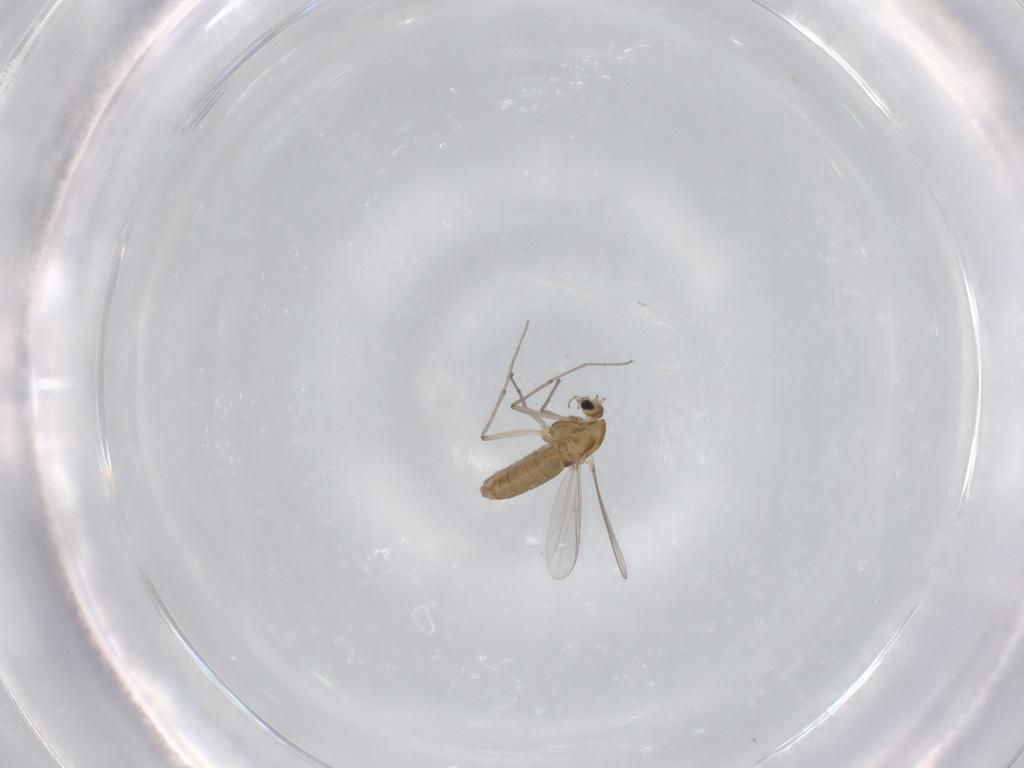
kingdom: Animalia
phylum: Arthropoda
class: Insecta
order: Diptera
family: Chironomidae
